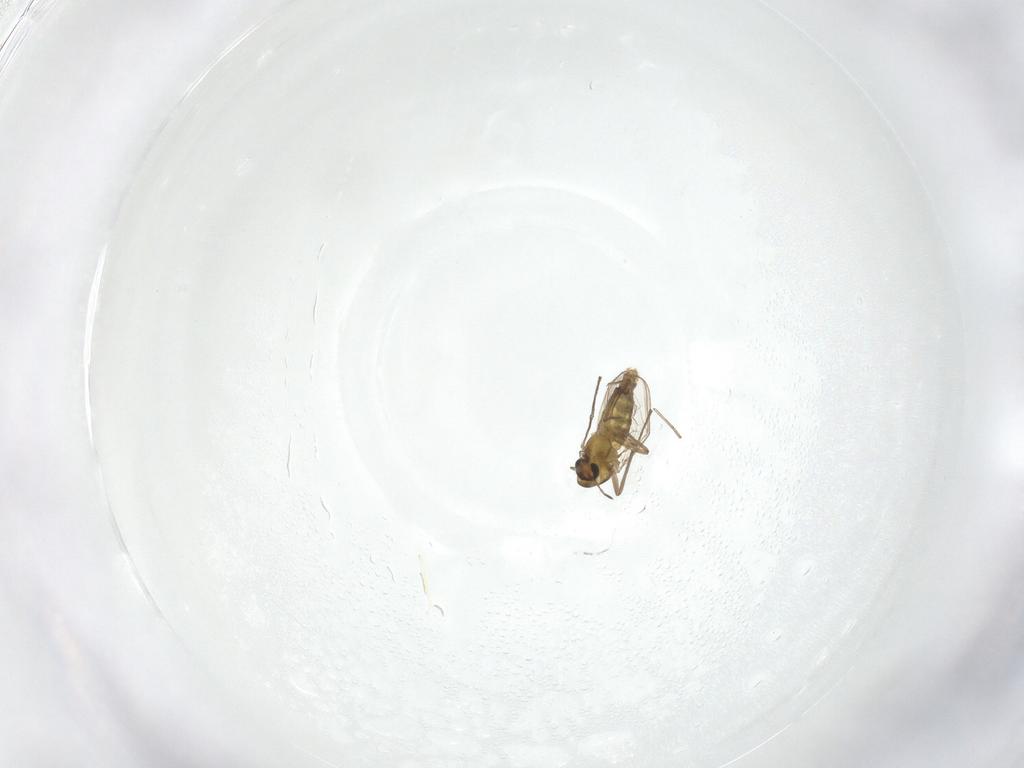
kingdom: Animalia
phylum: Arthropoda
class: Insecta
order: Diptera
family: Chironomidae
